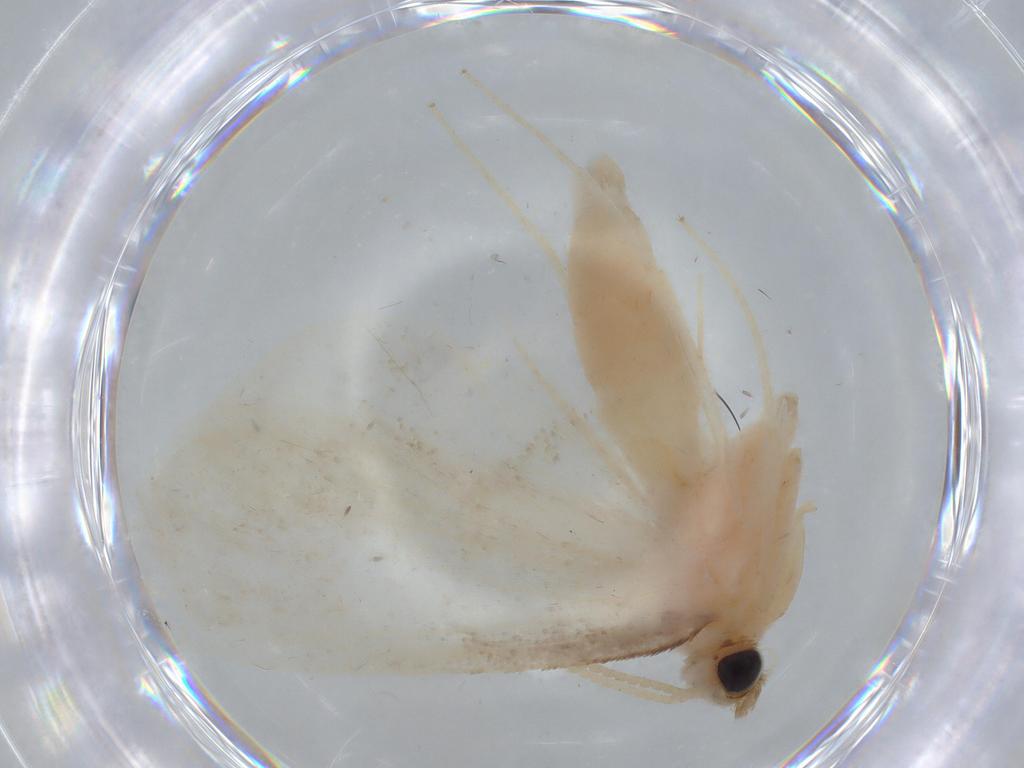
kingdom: Animalia
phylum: Arthropoda
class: Insecta
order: Lepidoptera
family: Crambidae
